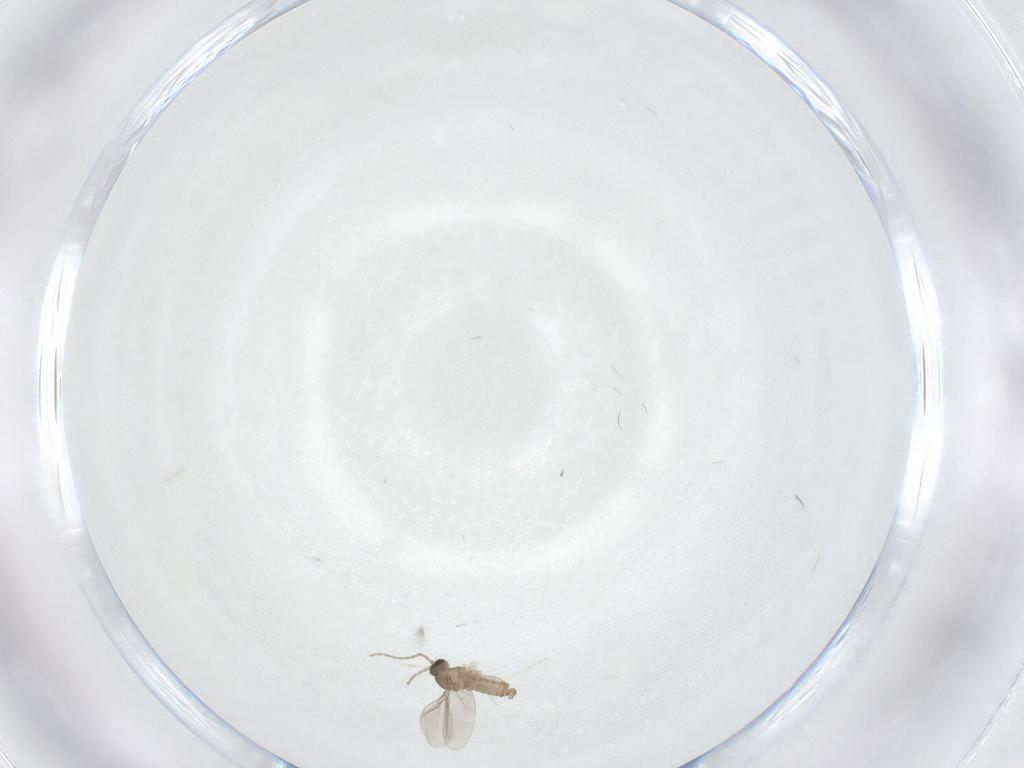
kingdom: Animalia
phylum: Arthropoda
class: Insecta
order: Diptera
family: Cecidomyiidae
